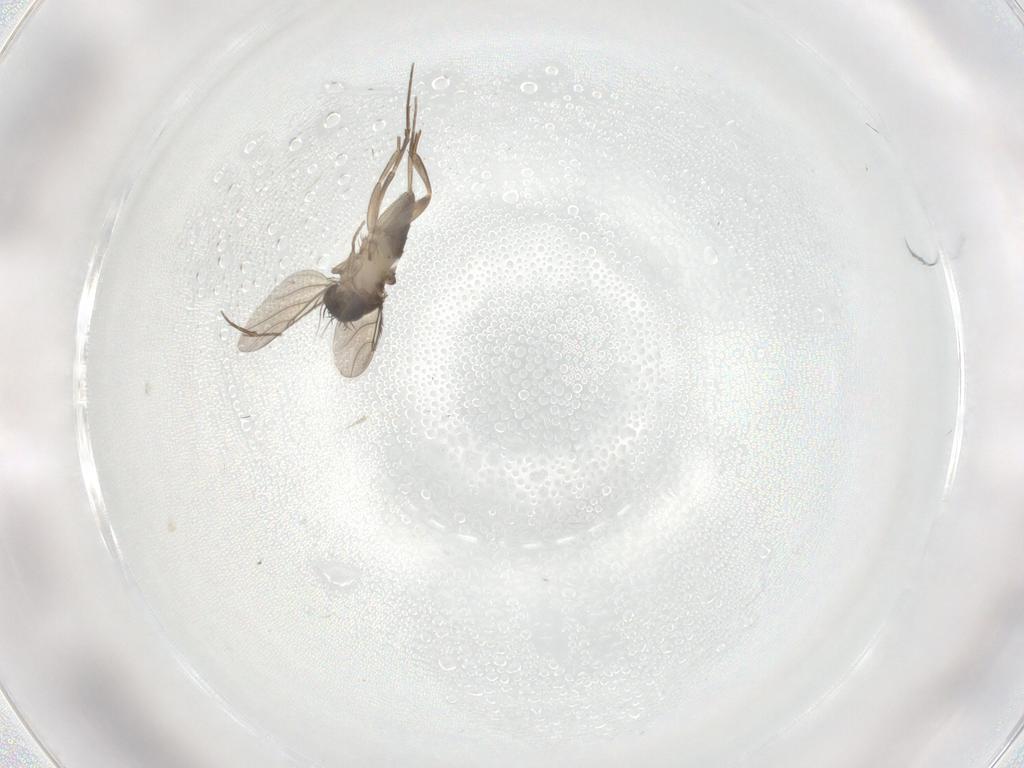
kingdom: Animalia
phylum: Arthropoda
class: Insecta
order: Diptera
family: Phoridae
